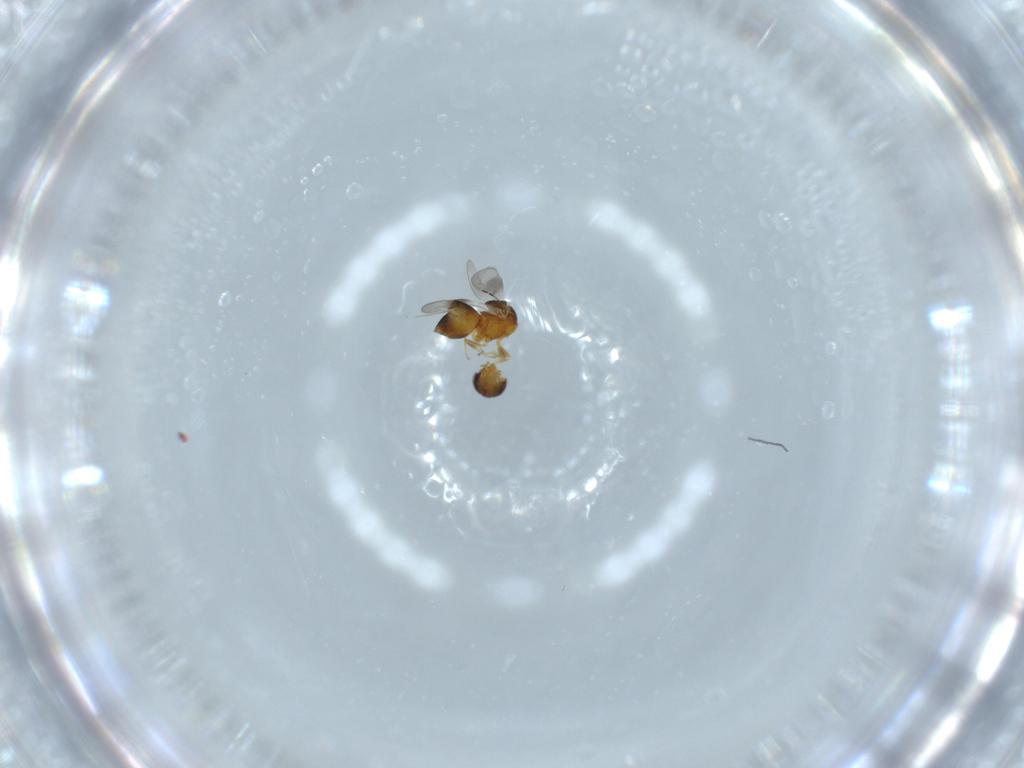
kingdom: Animalia
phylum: Arthropoda
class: Insecta
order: Hymenoptera
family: Ceraphronidae
